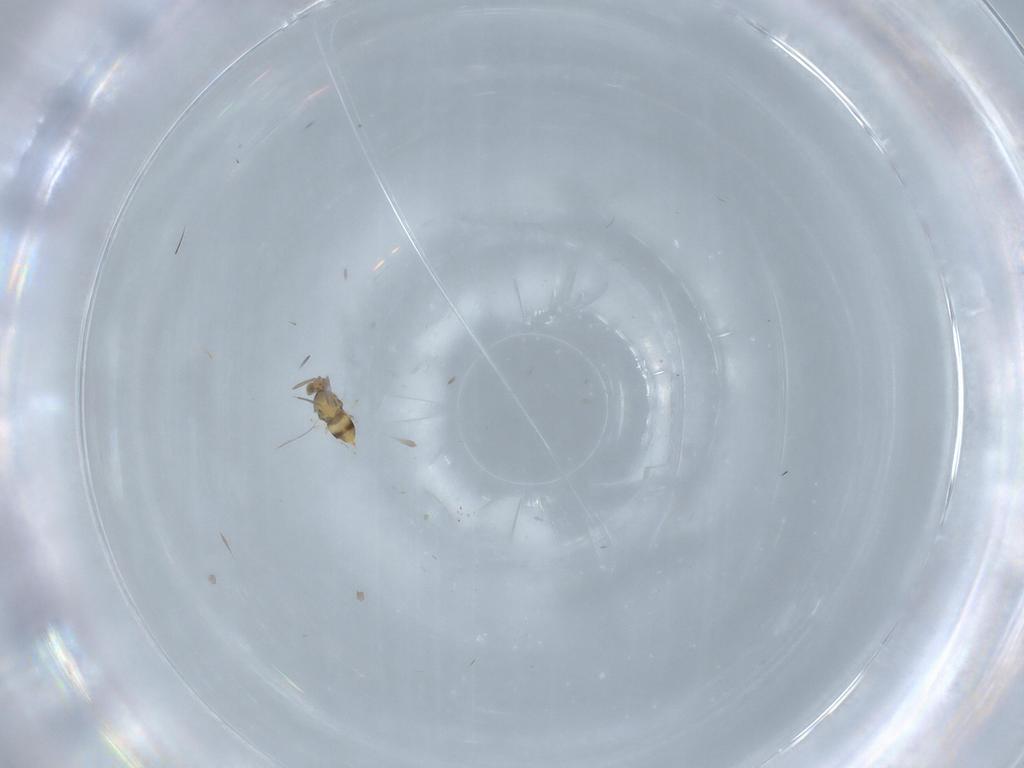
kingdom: Animalia
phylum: Arthropoda
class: Insecta
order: Hymenoptera
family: Aphelinidae
